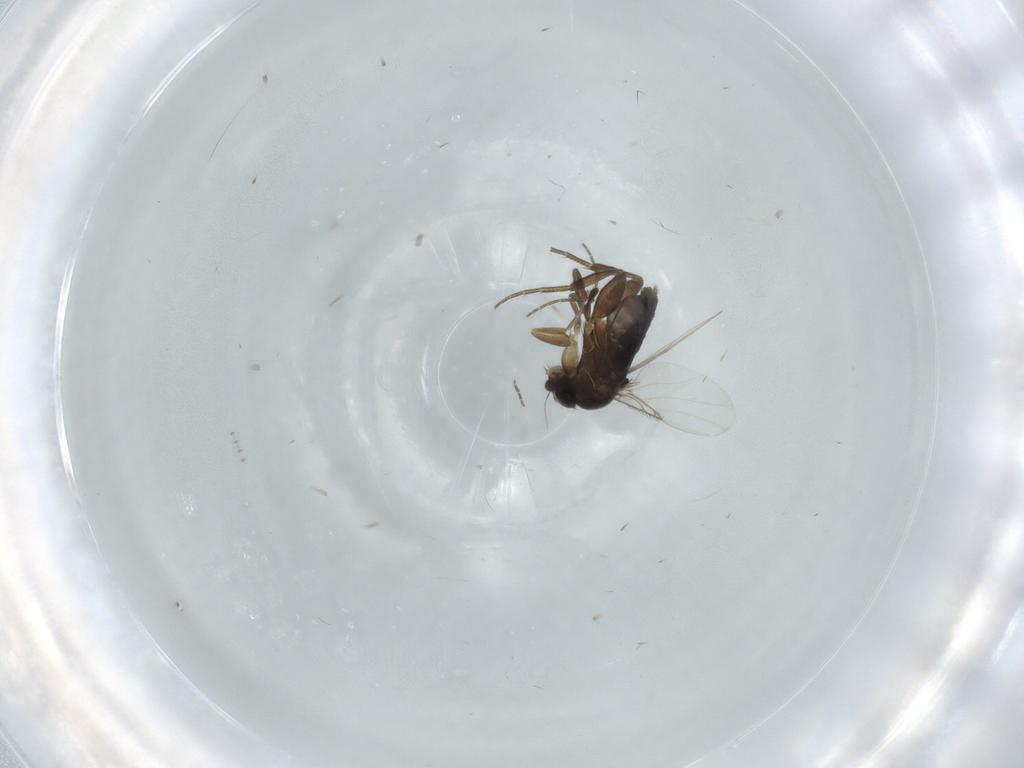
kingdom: Animalia
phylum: Arthropoda
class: Insecta
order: Diptera
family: Phoridae
